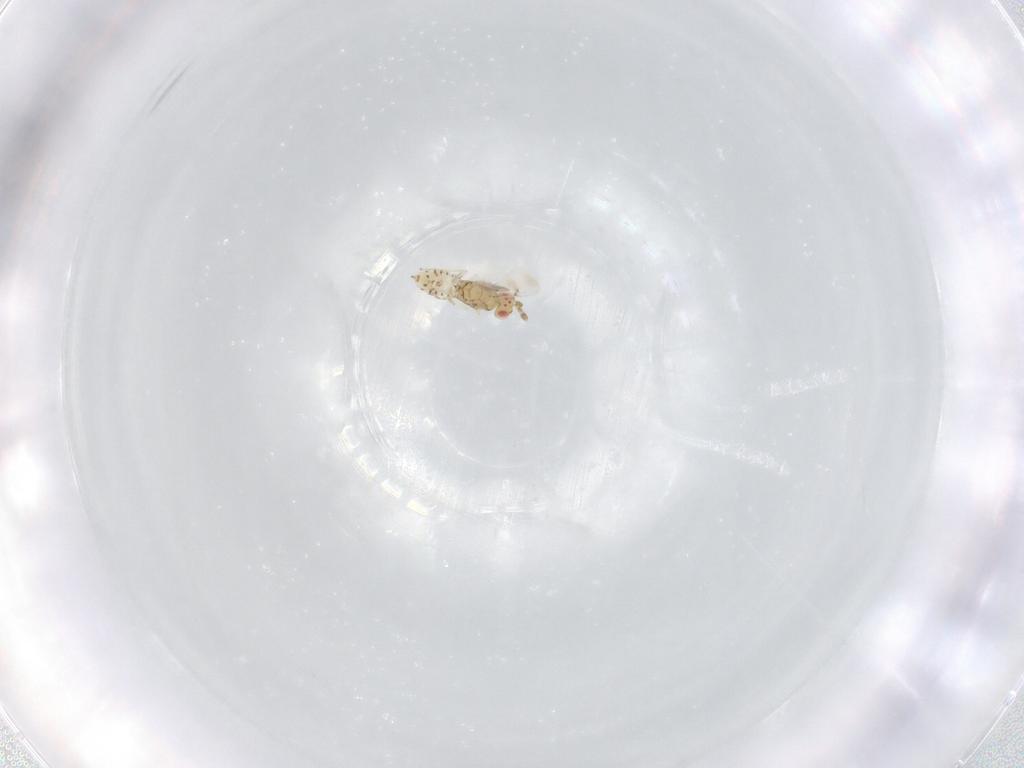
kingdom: Animalia
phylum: Arthropoda
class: Insecta
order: Hymenoptera
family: Eulophidae
